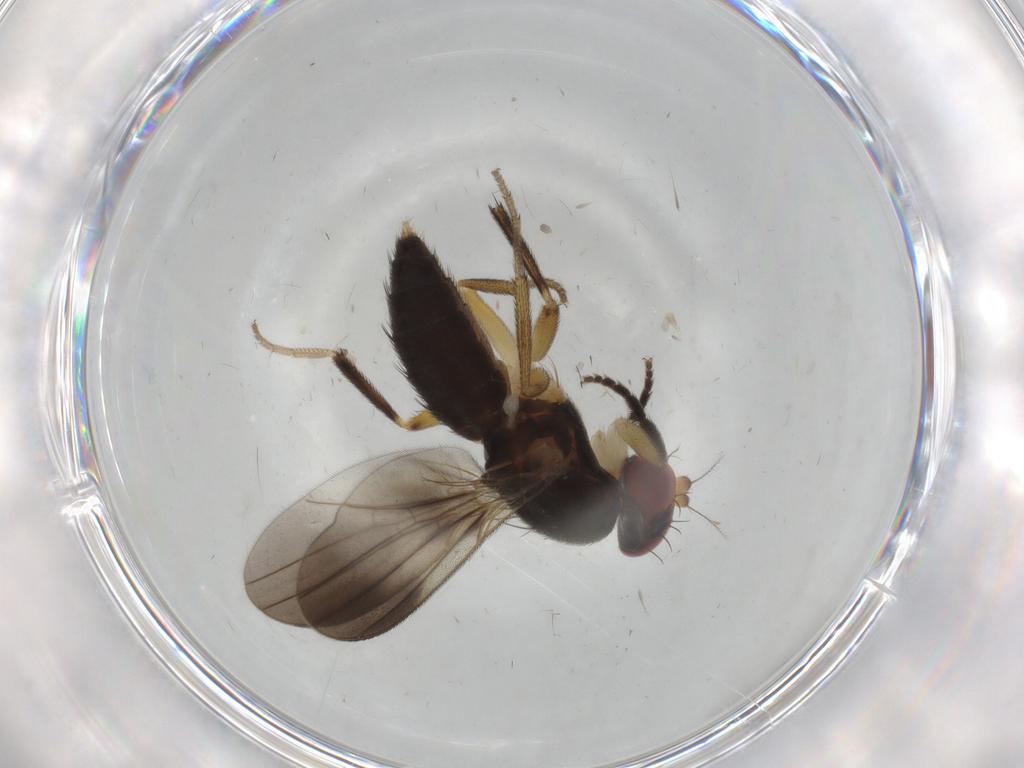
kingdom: Animalia
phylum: Arthropoda
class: Insecta
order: Diptera
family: Clusiidae
